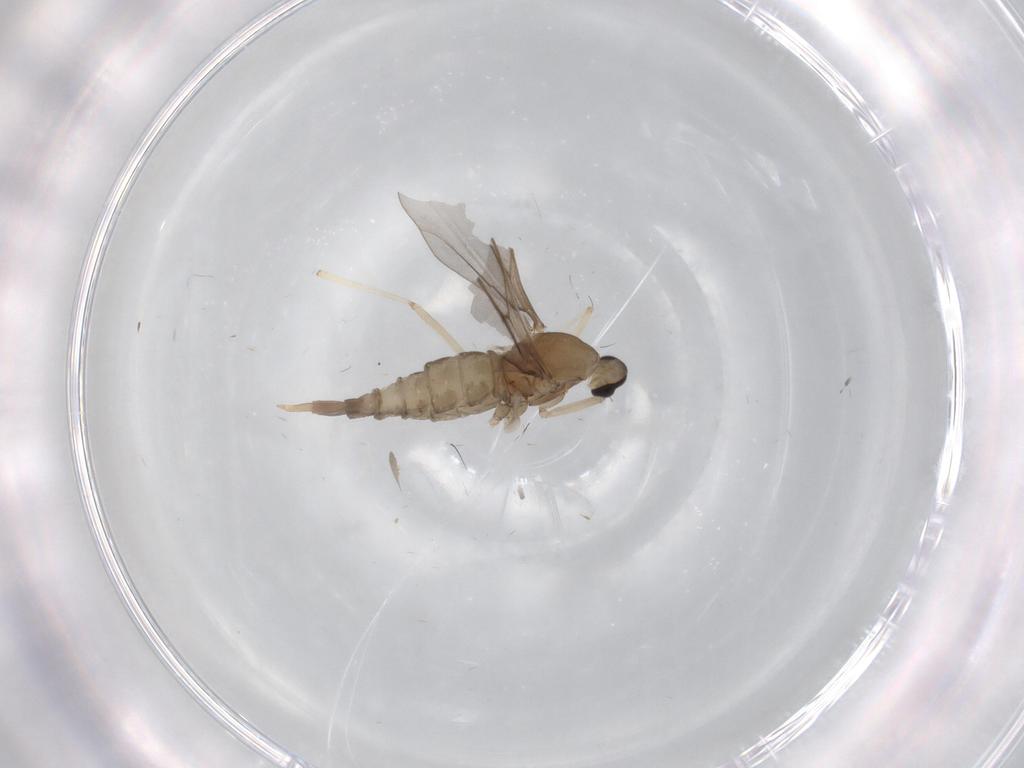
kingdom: Animalia
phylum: Arthropoda
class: Insecta
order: Diptera
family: Cecidomyiidae
